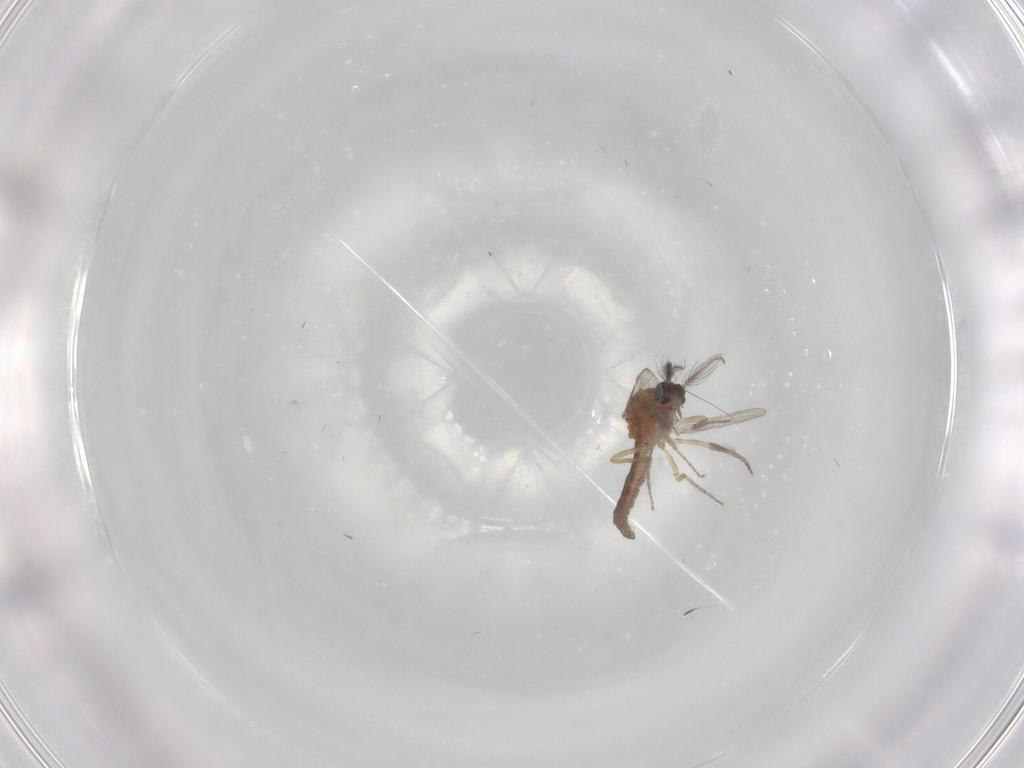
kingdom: Animalia
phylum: Arthropoda
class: Insecta
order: Diptera
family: Ceratopogonidae
